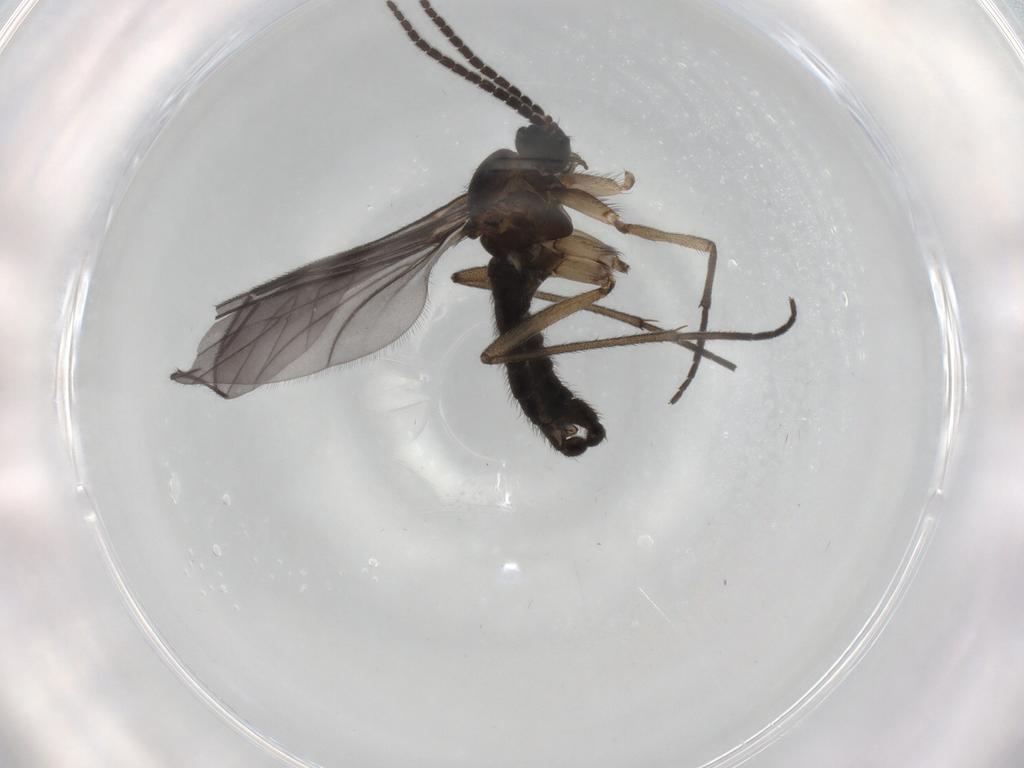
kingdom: Animalia
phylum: Arthropoda
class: Insecta
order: Diptera
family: Sciaridae
